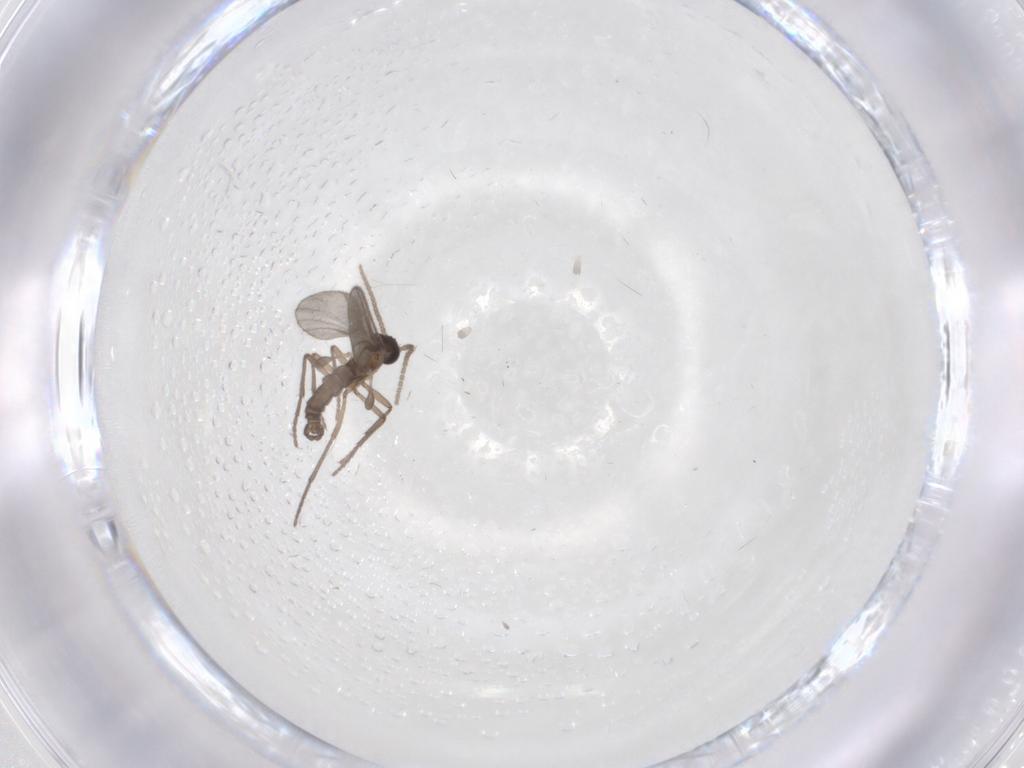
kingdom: Animalia
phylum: Arthropoda
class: Insecta
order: Diptera
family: Sciaridae
